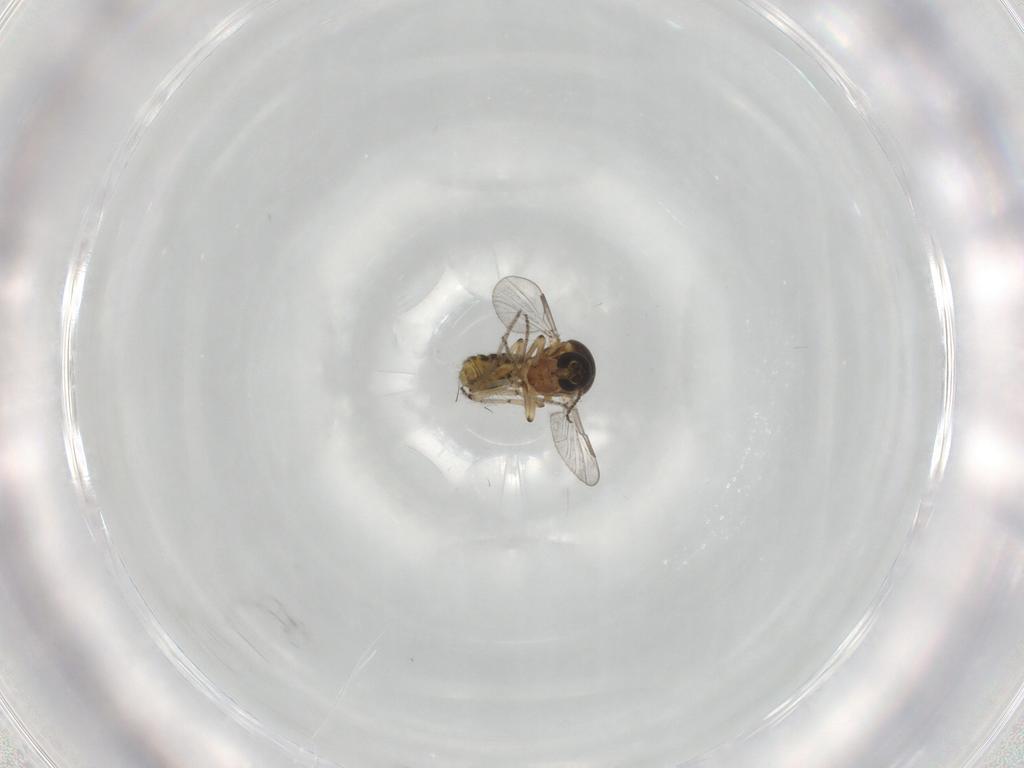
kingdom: Animalia
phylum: Arthropoda
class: Insecta
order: Diptera
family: Ceratopogonidae
